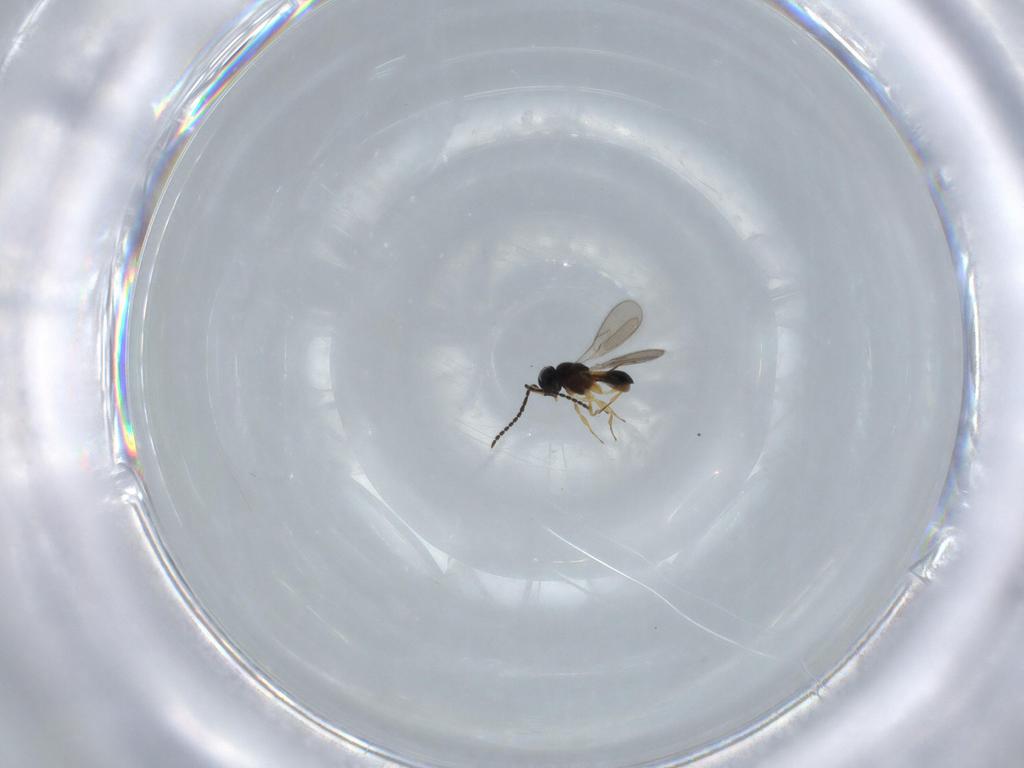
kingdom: Animalia
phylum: Arthropoda
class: Insecta
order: Hymenoptera
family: Scelionidae
